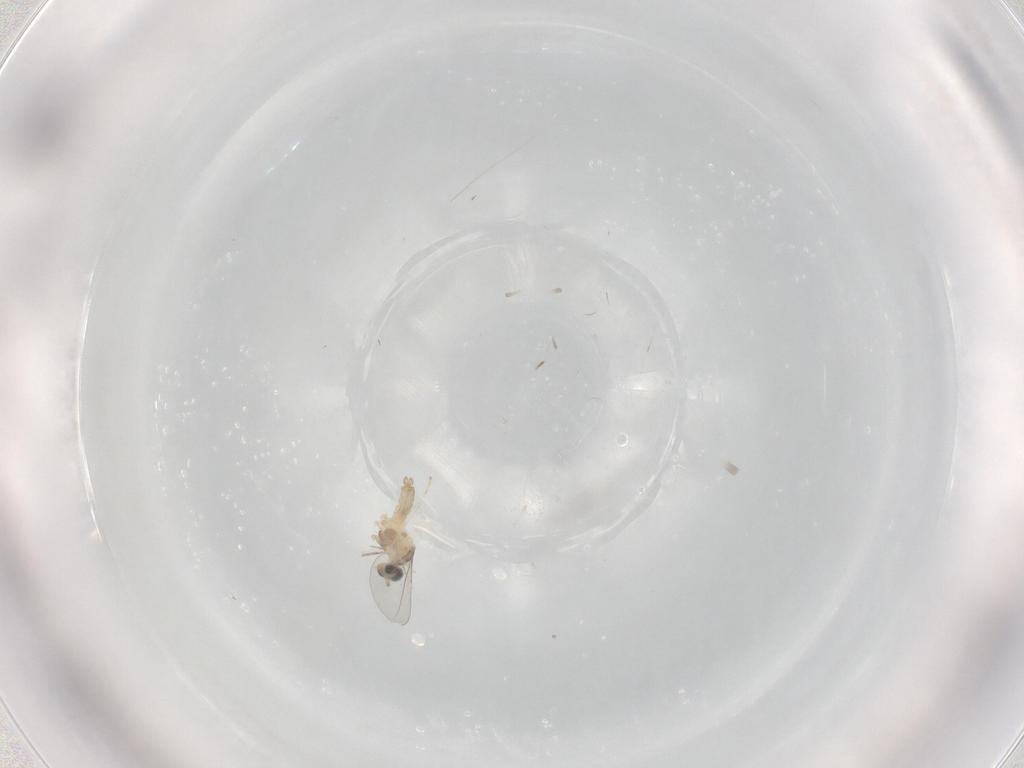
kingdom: Animalia
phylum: Arthropoda
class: Insecta
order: Diptera
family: Cecidomyiidae
